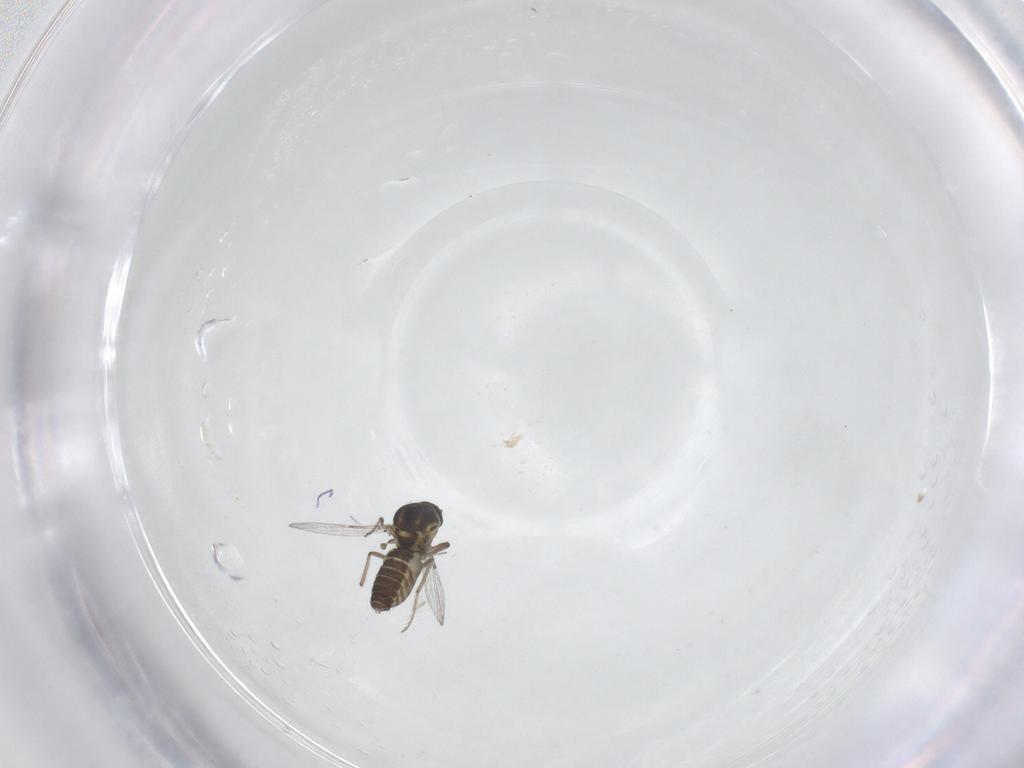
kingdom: Animalia
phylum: Arthropoda
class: Insecta
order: Diptera
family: Ceratopogonidae
